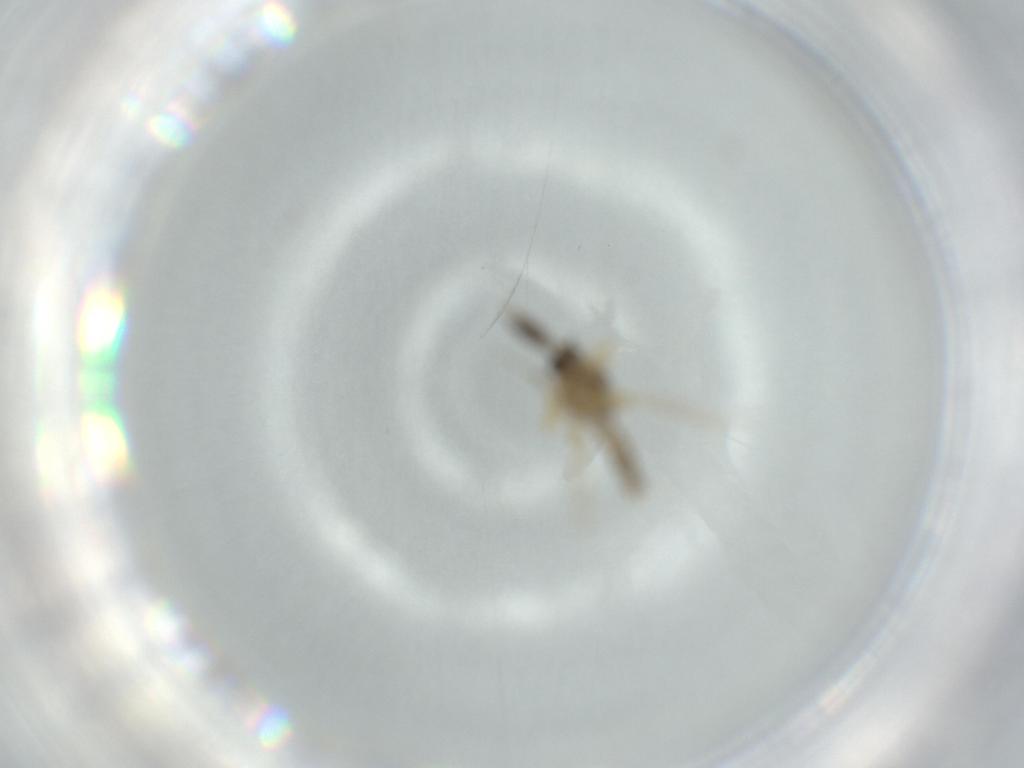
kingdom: Animalia
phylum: Arthropoda
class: Insecta
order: Diptera
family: Ceratopogonidae
